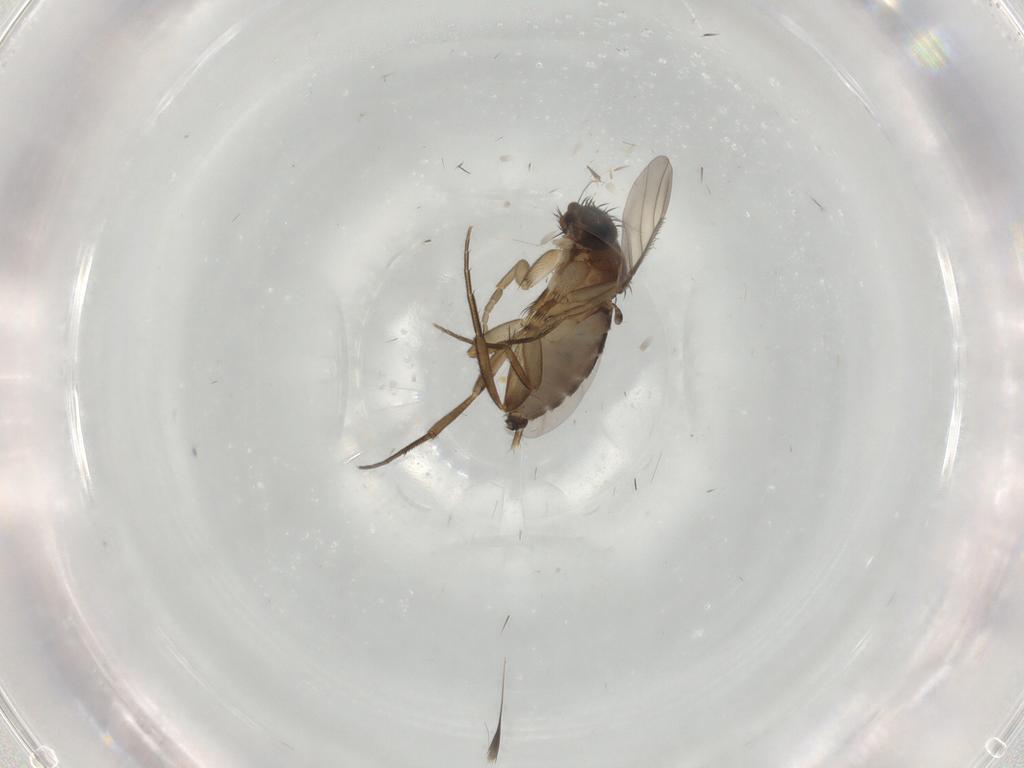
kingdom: Animalia
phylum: Arthropoda
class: Insecta
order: Diptera
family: Phoridae
